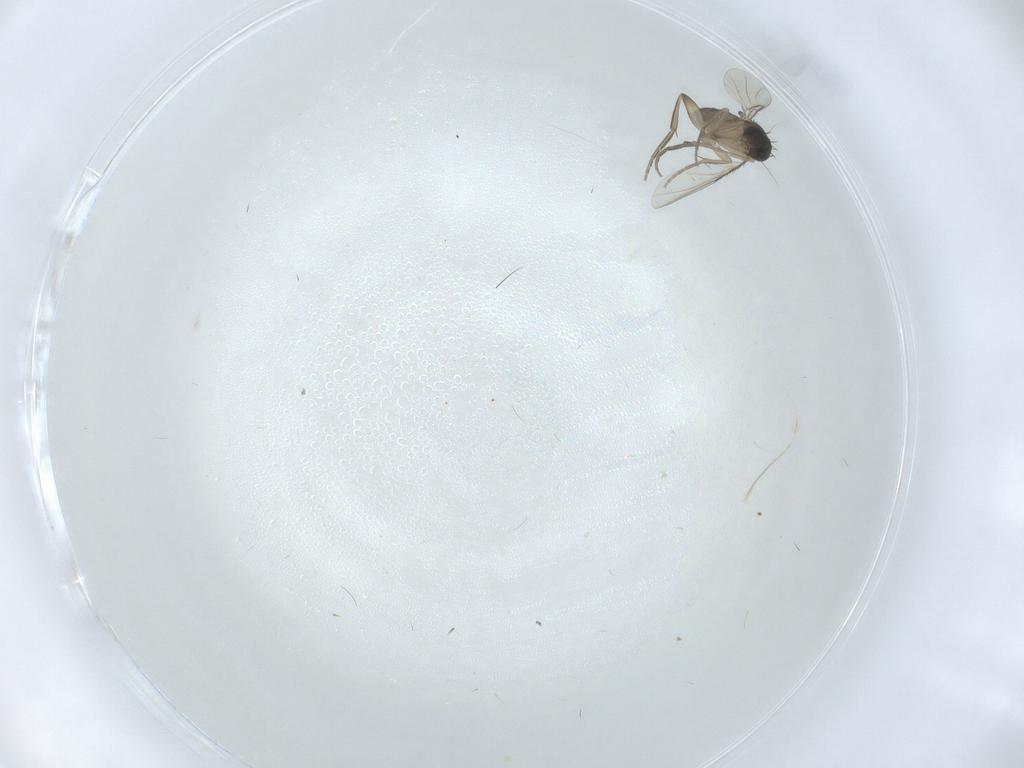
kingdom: Animalia
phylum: Arthropoda
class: Insecta
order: Diptera
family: Phoridae
